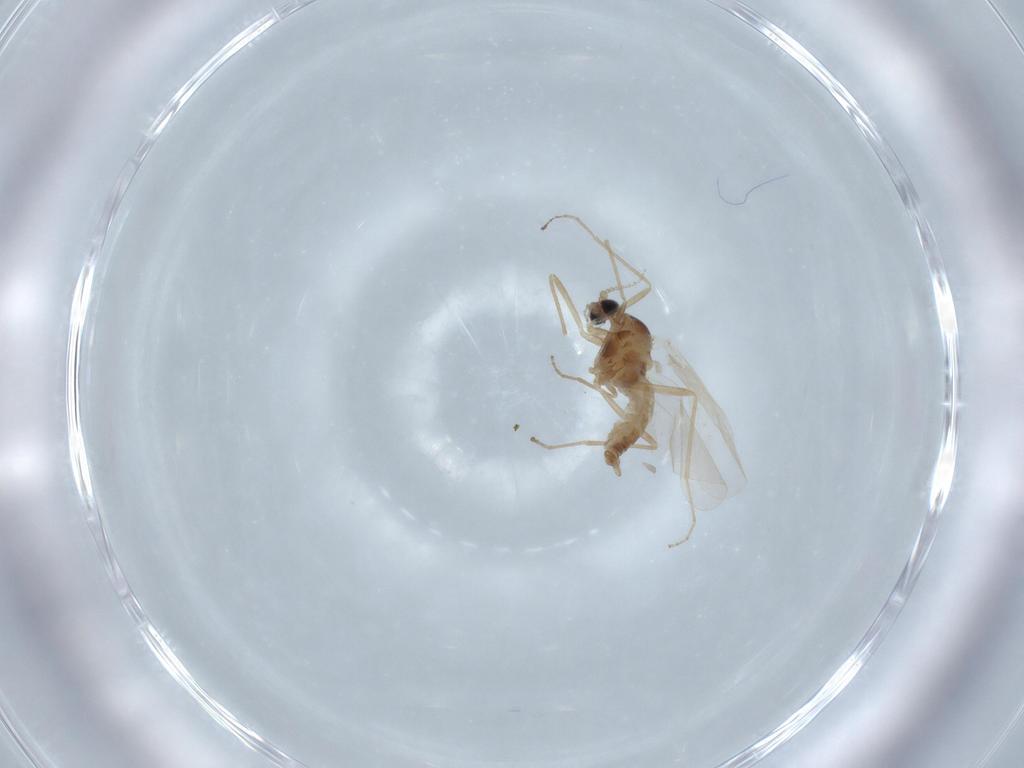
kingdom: Animalia
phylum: Arthropoda
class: Insecta
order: Diptera
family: Cecidomyiidae
